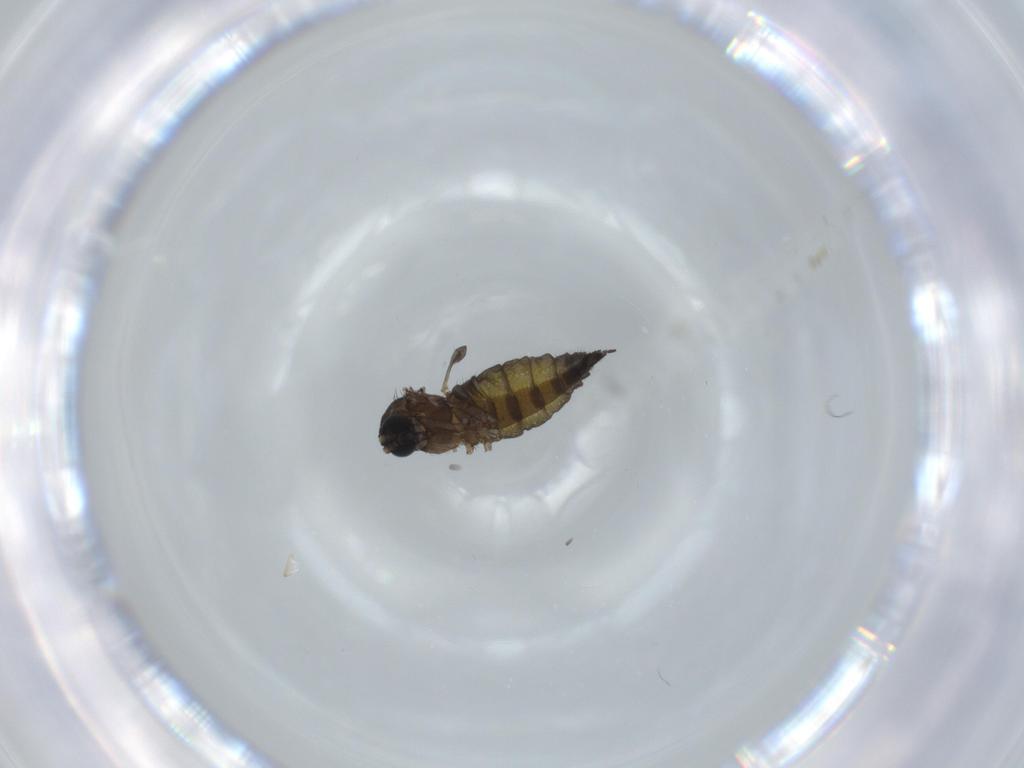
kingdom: Animalia
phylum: Arthropoda
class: Insecta
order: Diptera
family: Sciaridae
